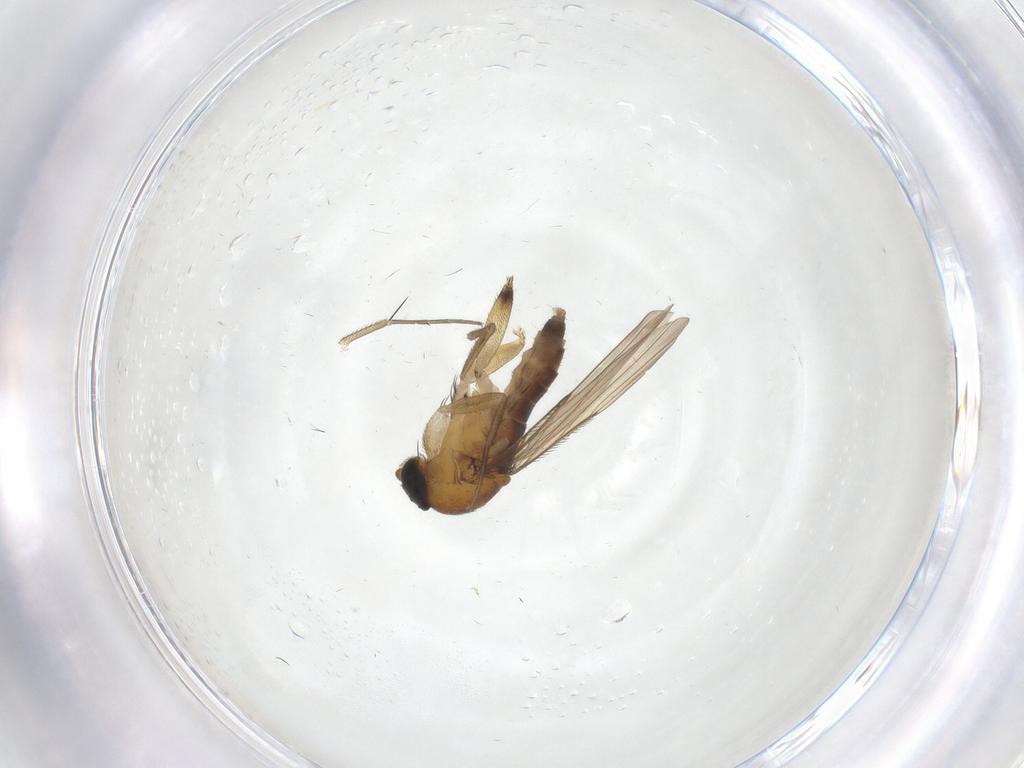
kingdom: Animalia
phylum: Arthropoda
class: Insecta
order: Diptera
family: Phoridae
